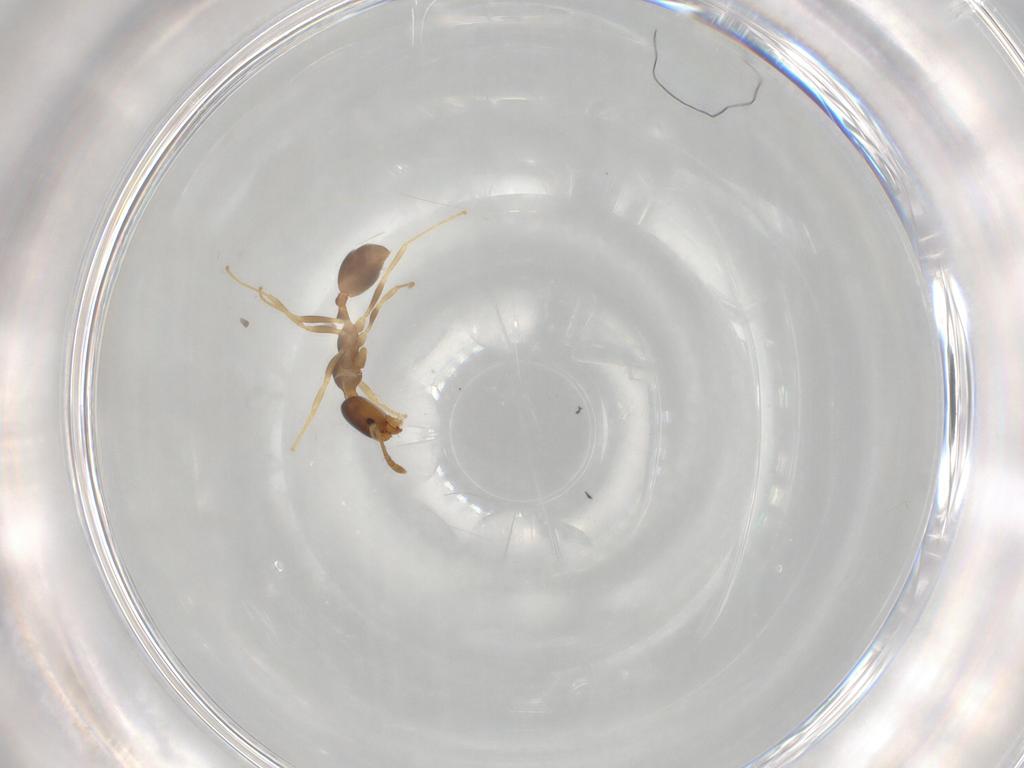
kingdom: Animalia
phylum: Arthropoda
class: Insecta
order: Hymenoptera
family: Formicidae
